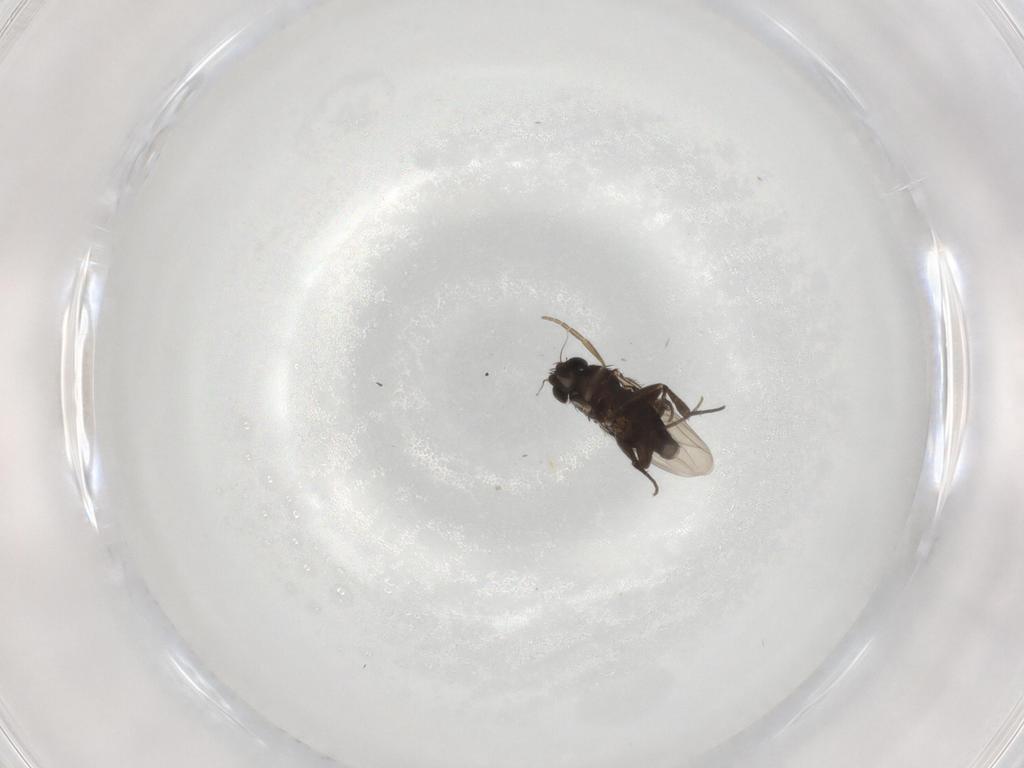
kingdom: Animalia
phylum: Arthropoda
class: Insecta
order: Diptera
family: Phoridae
